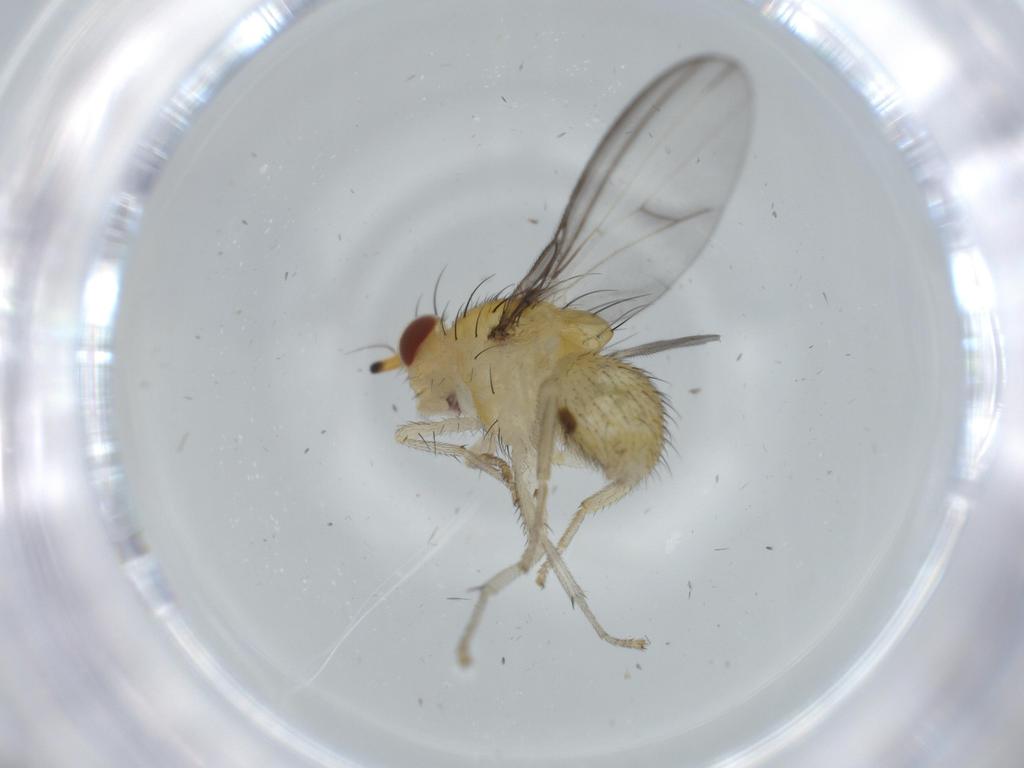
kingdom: Animalia
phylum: Arthropoda
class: Insecta
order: Diptera
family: Lauxaniidae
